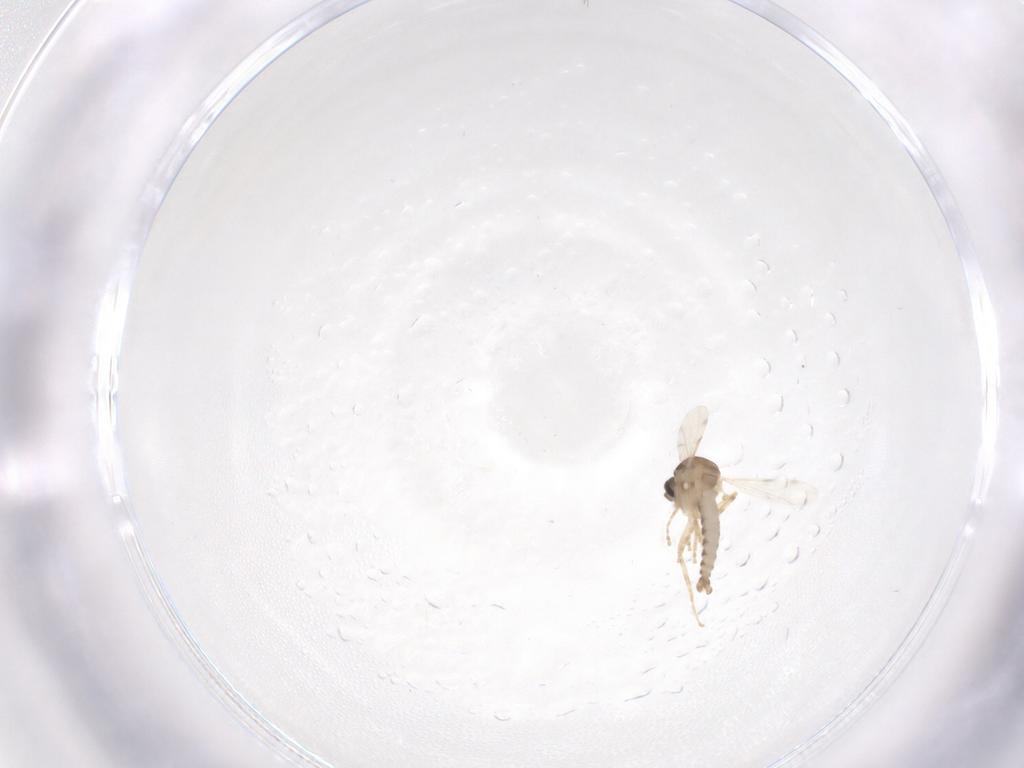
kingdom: Animalia
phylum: Arthropoda
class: Insecta
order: Diptera
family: Ceratopogonidae
